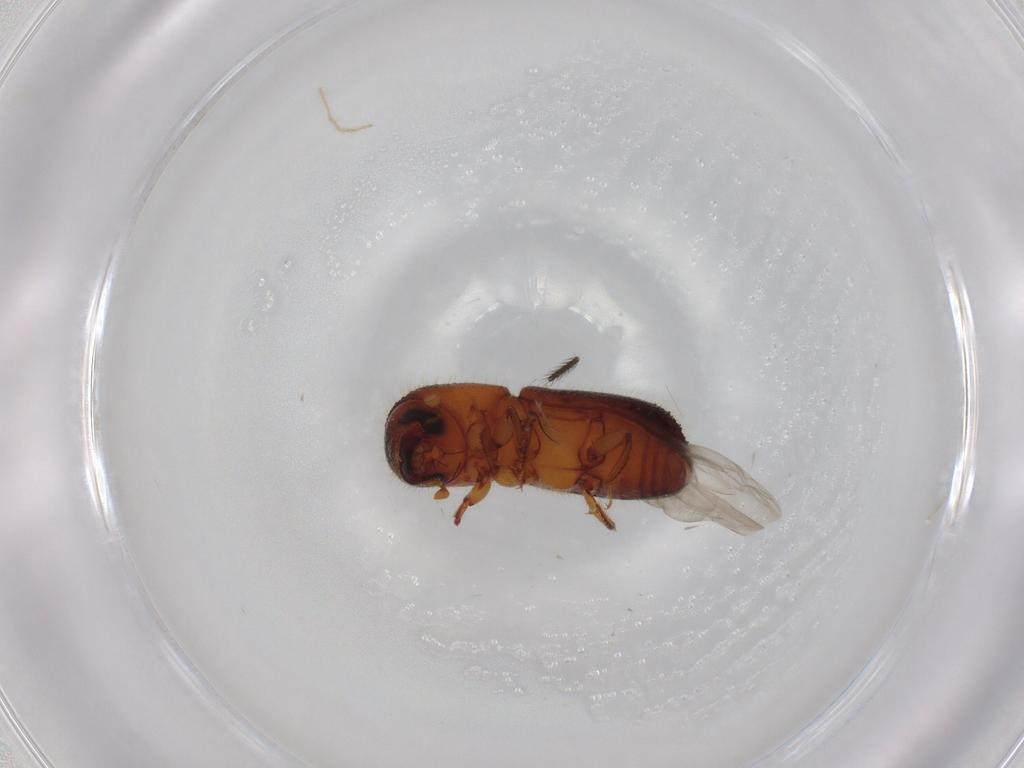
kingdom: Animalia
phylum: Arthropoda
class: Insecta
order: Coleoptera
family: Curculionidae
